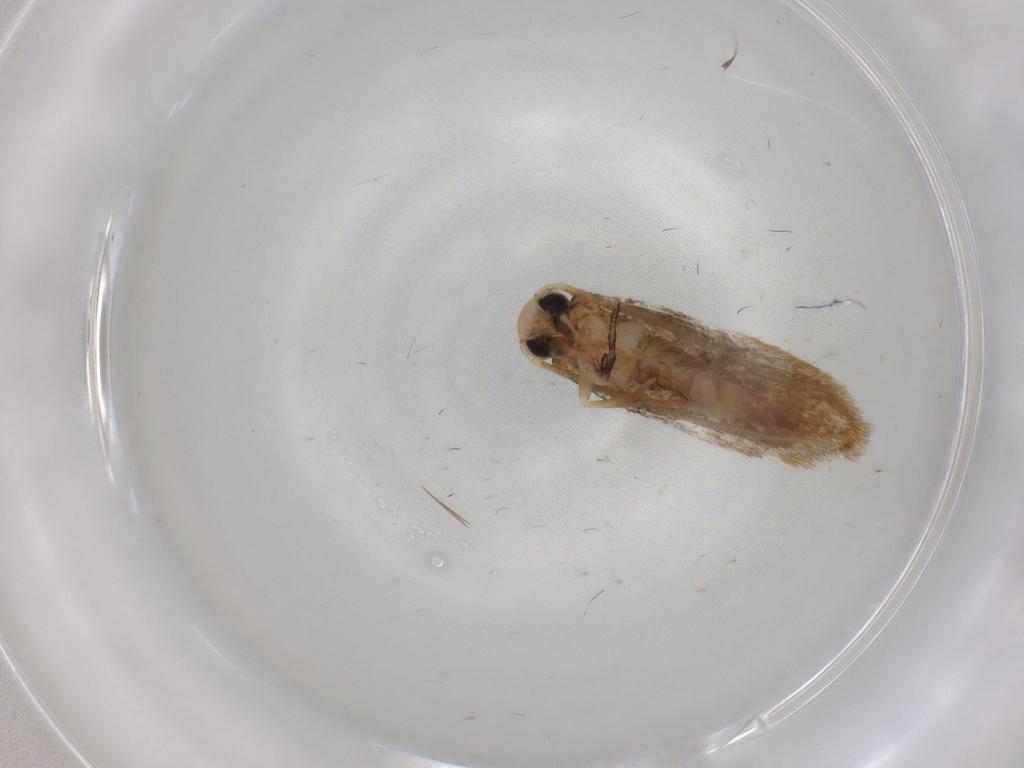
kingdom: Animalia
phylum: Arthropoda
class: Insecta
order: Lepidoptera
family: Cosmopterigidae
